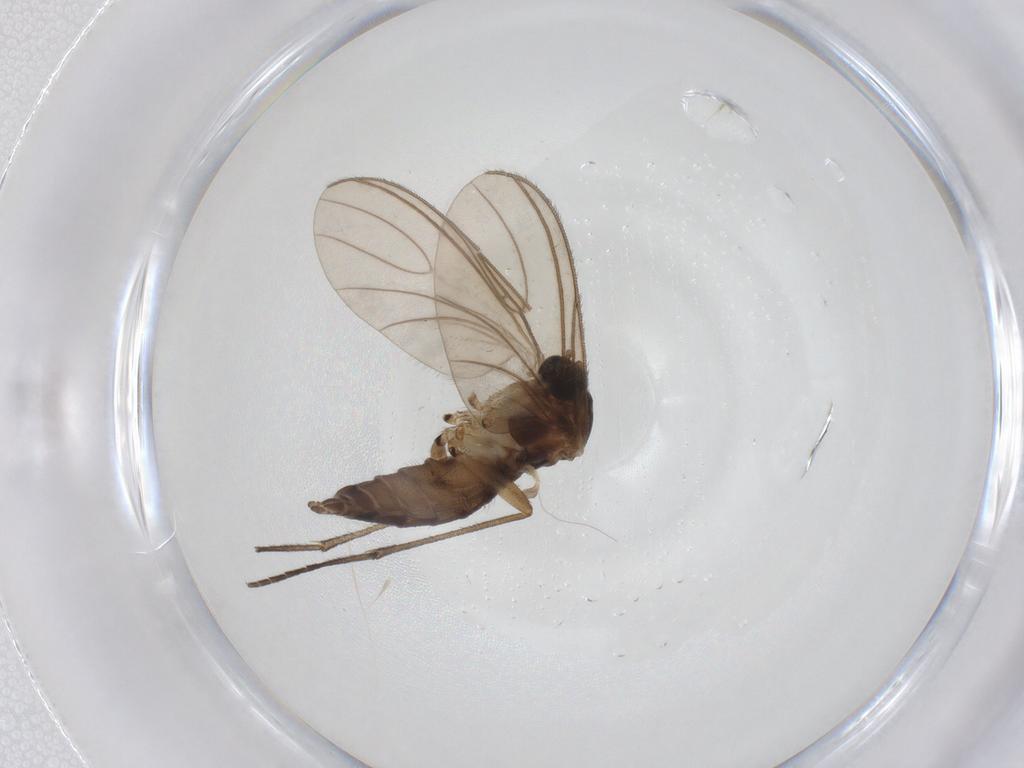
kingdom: Animalia
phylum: Arthropoda
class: Insecta
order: Diptera
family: Sciaridae
